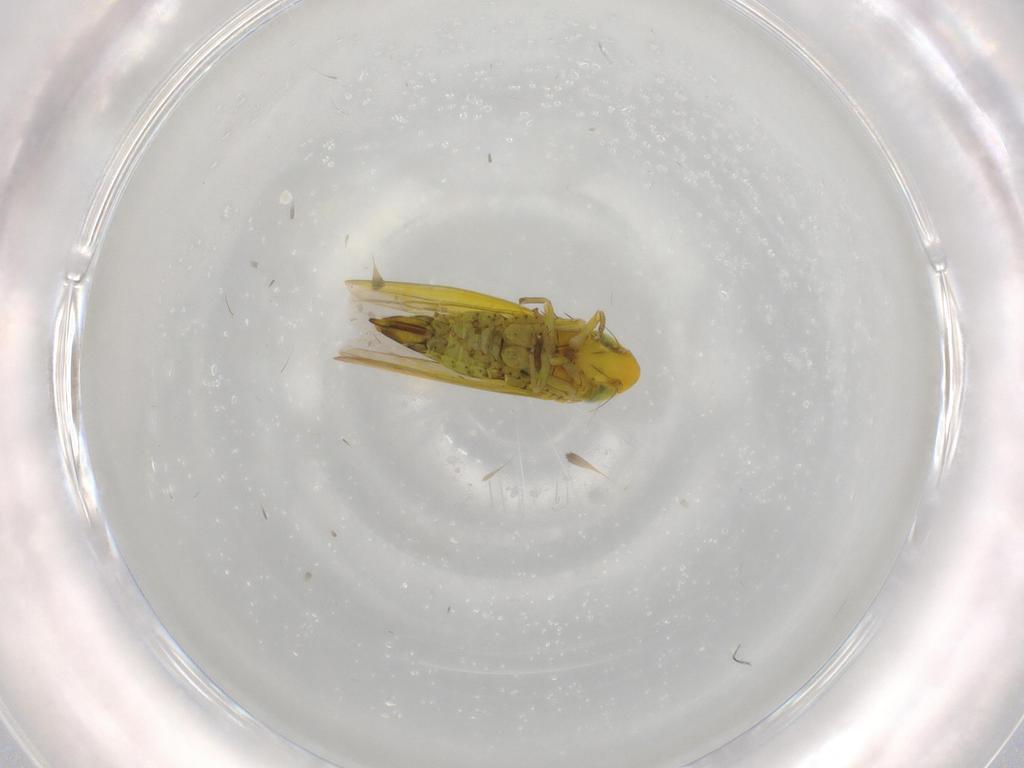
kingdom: Animalia
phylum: Arthropoda
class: Insecta
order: Hemiptera
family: Cicadellidae
